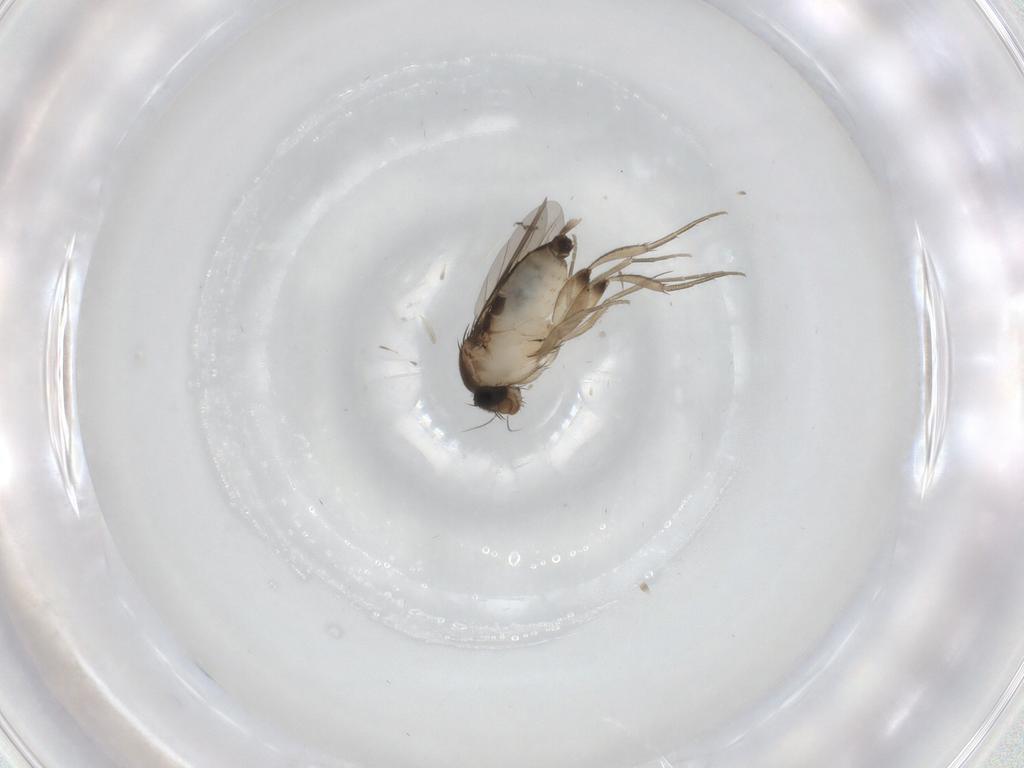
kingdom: Animalia
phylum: Arthropoda
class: Insecta
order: Diptera
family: Phoridae
